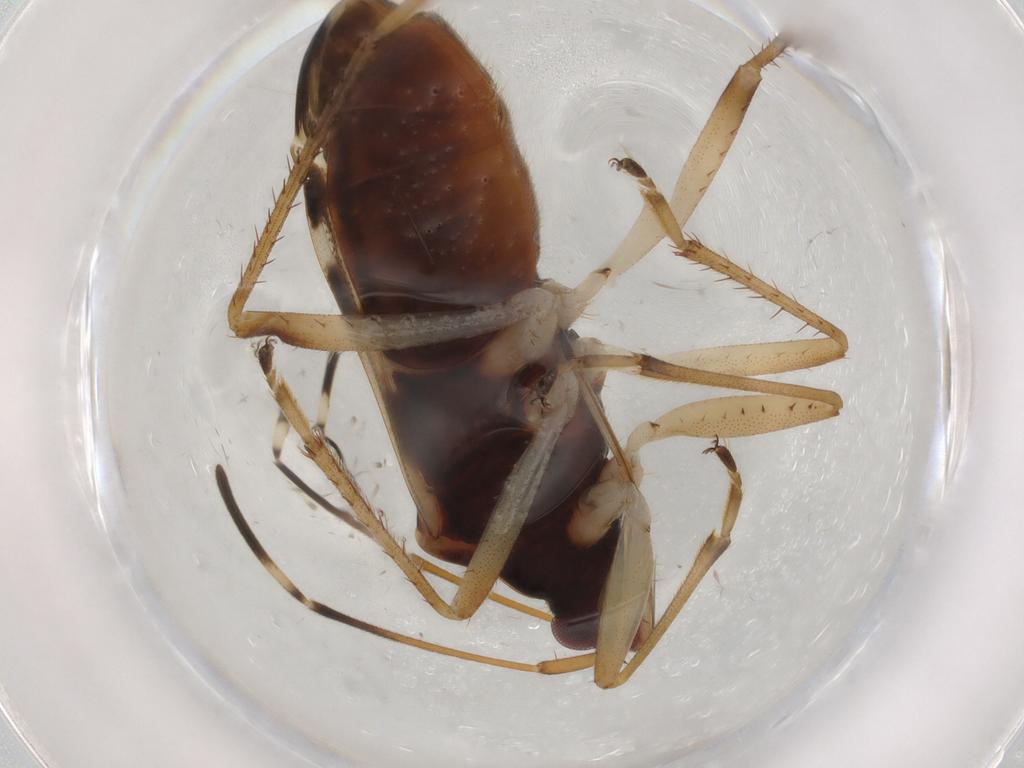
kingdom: Animalia
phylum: Arthropoda
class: Insecta
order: Hemiptera
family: Rhyparochromidae
